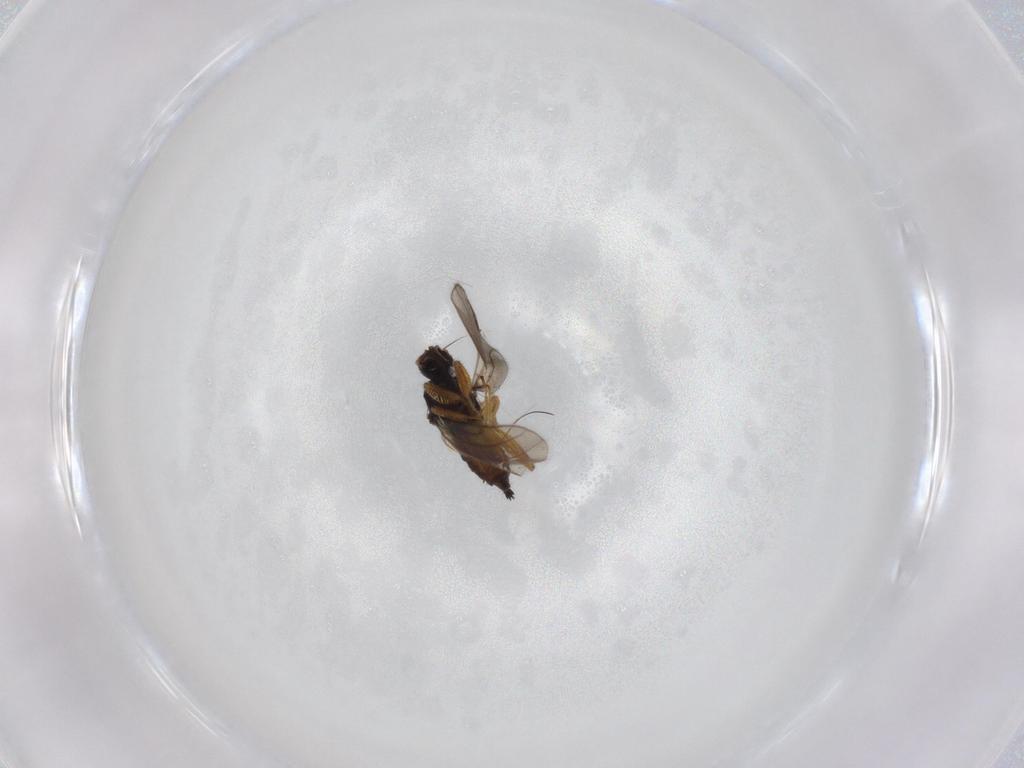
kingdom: Animalia
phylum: Arthropoda
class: Insecta
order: Diptera
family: Hybotidae
